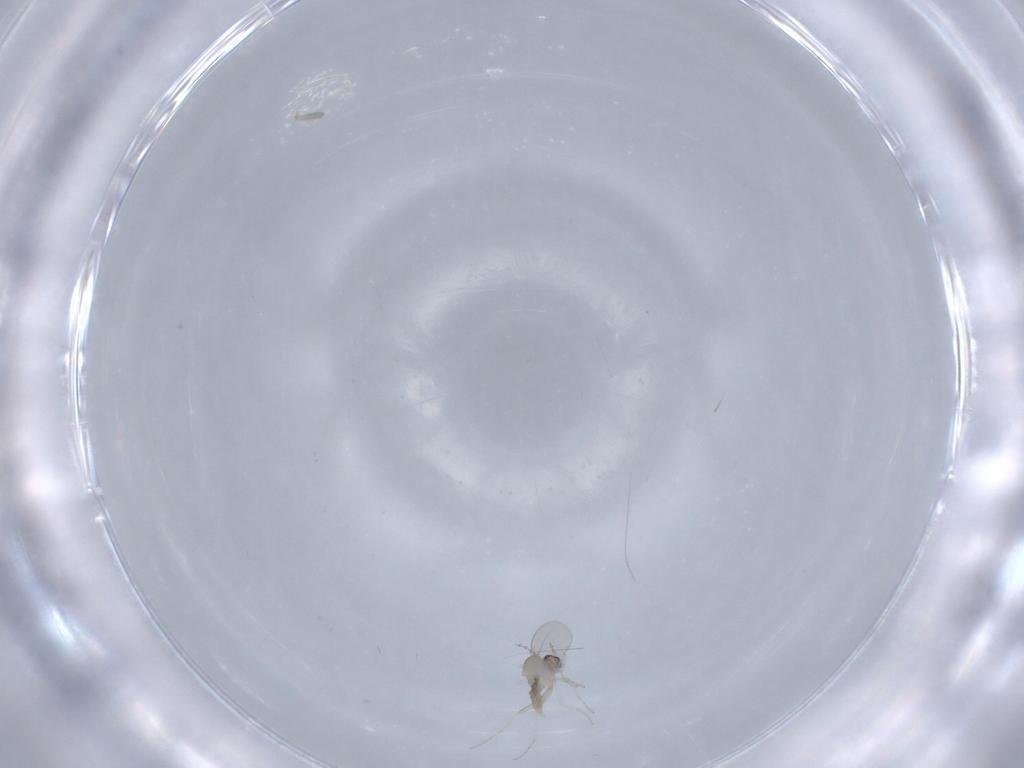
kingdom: Animalia
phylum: Arthropoda
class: Insecta
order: Diptera
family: Cecidomyiidae
